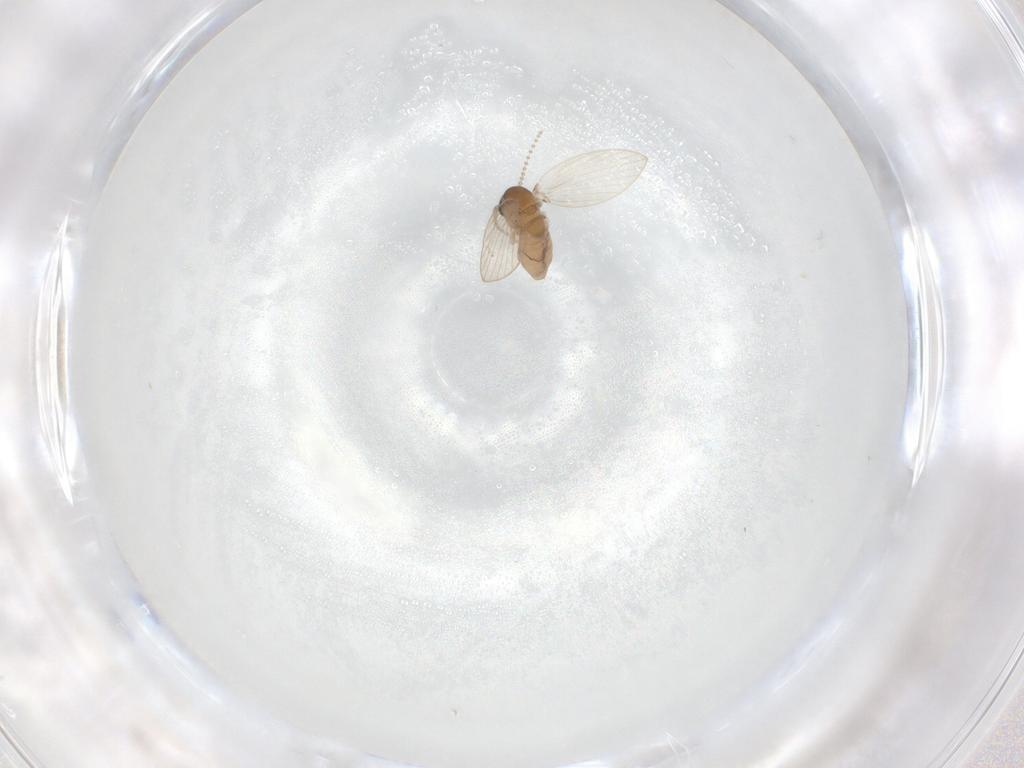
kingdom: Animalia
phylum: Arthropoda
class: Insecta
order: Diptera
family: Psychodidae
